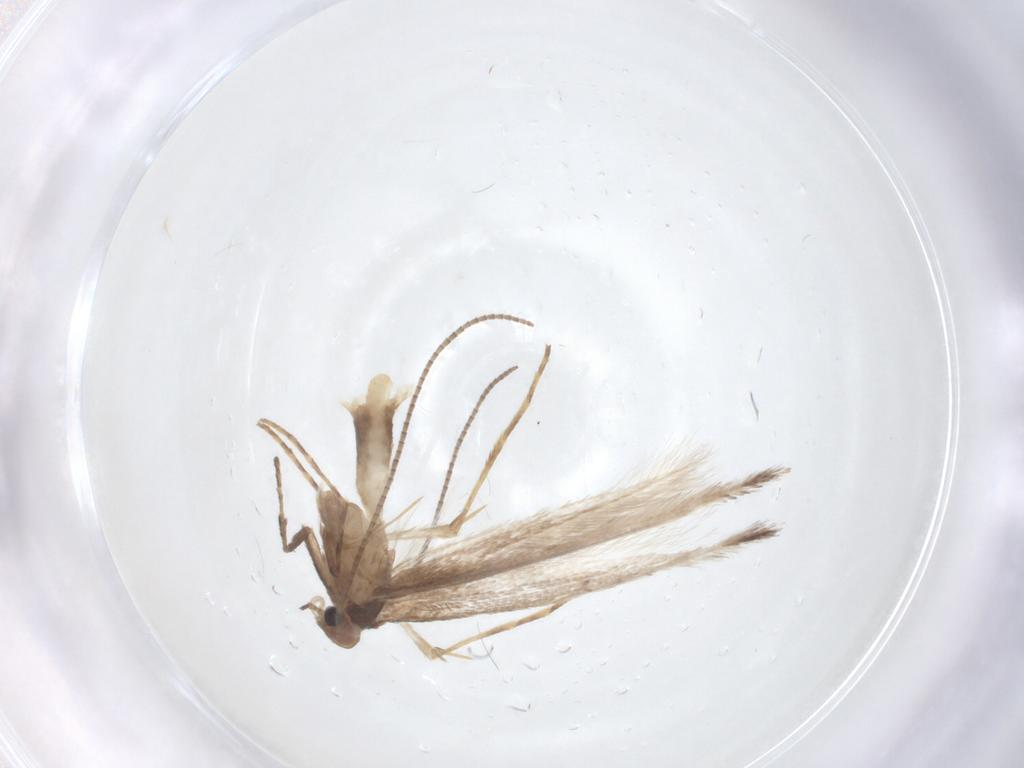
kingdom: Animalia
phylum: Arthropoda
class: Insecta
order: Lepidoptera
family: Gracillariidae
